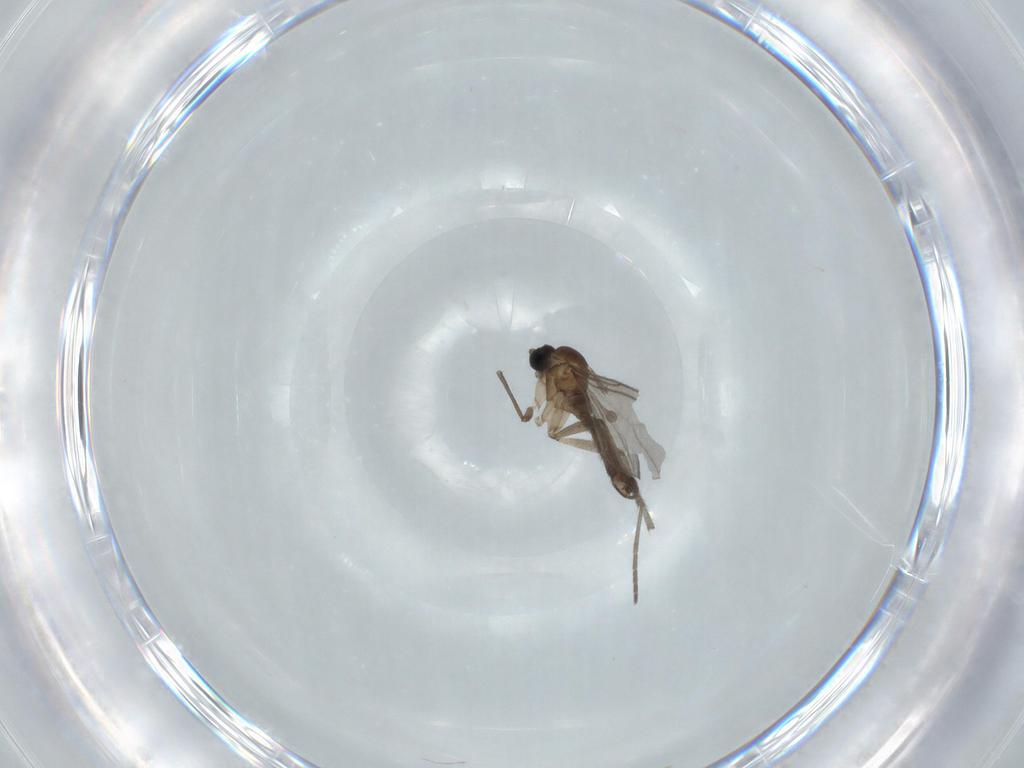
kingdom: Animalia
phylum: Arthropoda
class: Insecta
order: Diptera
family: Sciaridae
